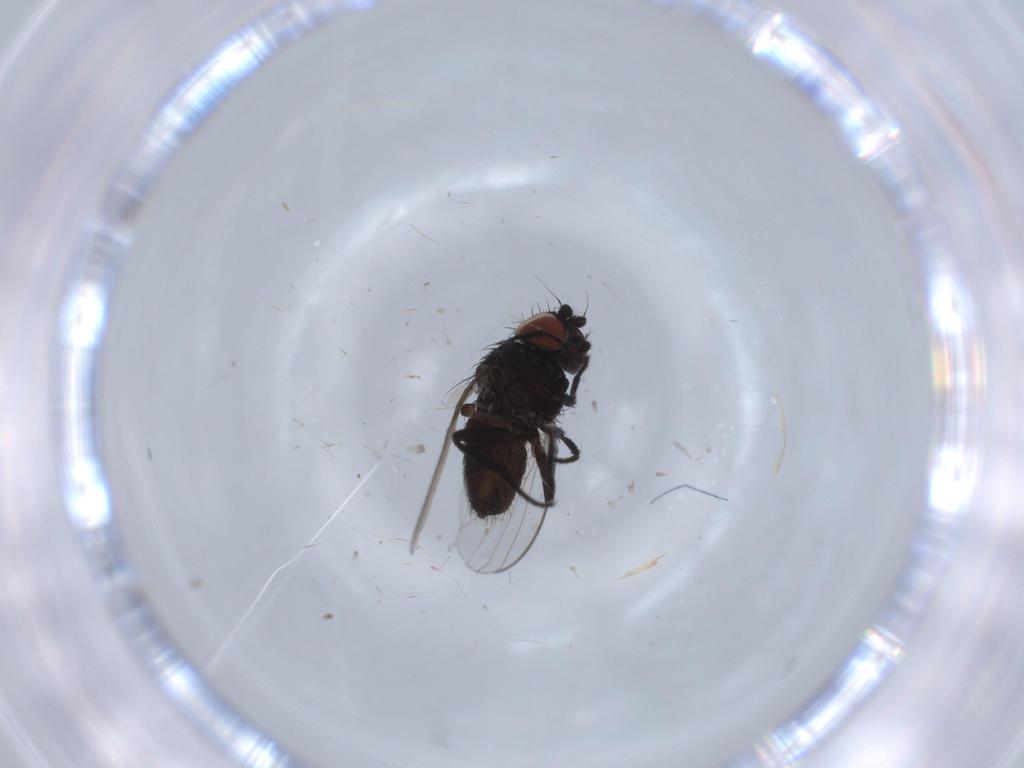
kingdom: Animalia
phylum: Arthropoda
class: Insecta
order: Diptera
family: Milichiidae
